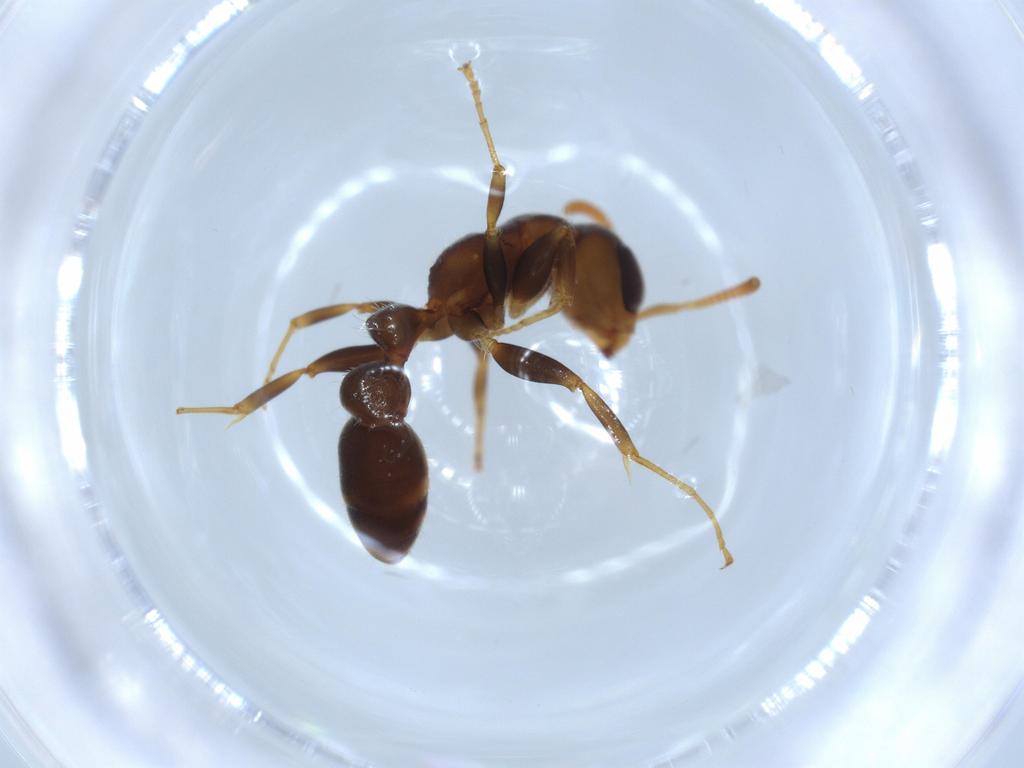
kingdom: Animalia
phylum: Arthropoda
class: Insecta
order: Hymenoptera
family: Formicidae
